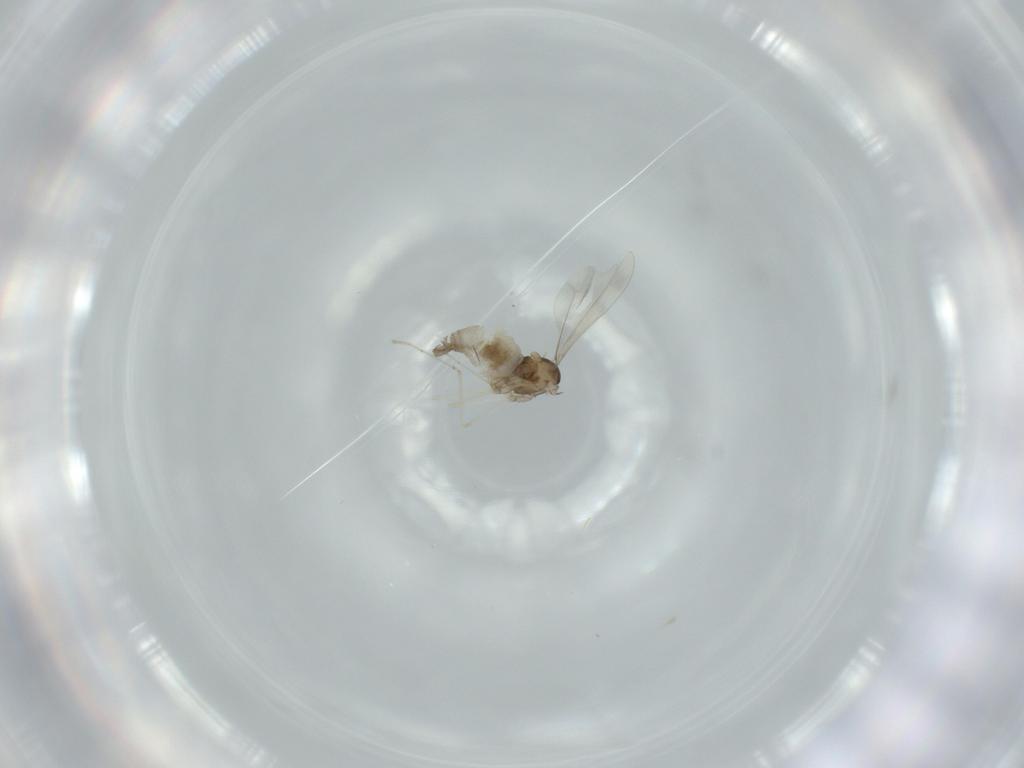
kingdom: Animalia
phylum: Arthropoda
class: Insecta
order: Diptera
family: Cecidomyiidae
